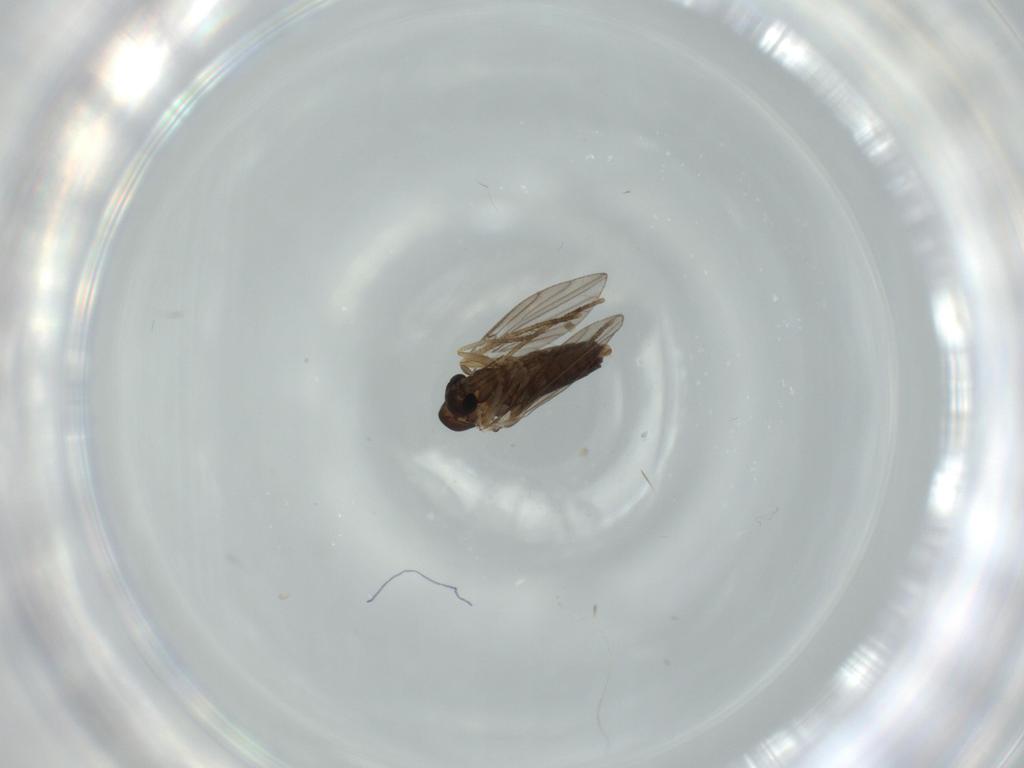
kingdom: Animalia
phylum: Arthropoda
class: Insecta
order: Diptera
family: Psychodidae
